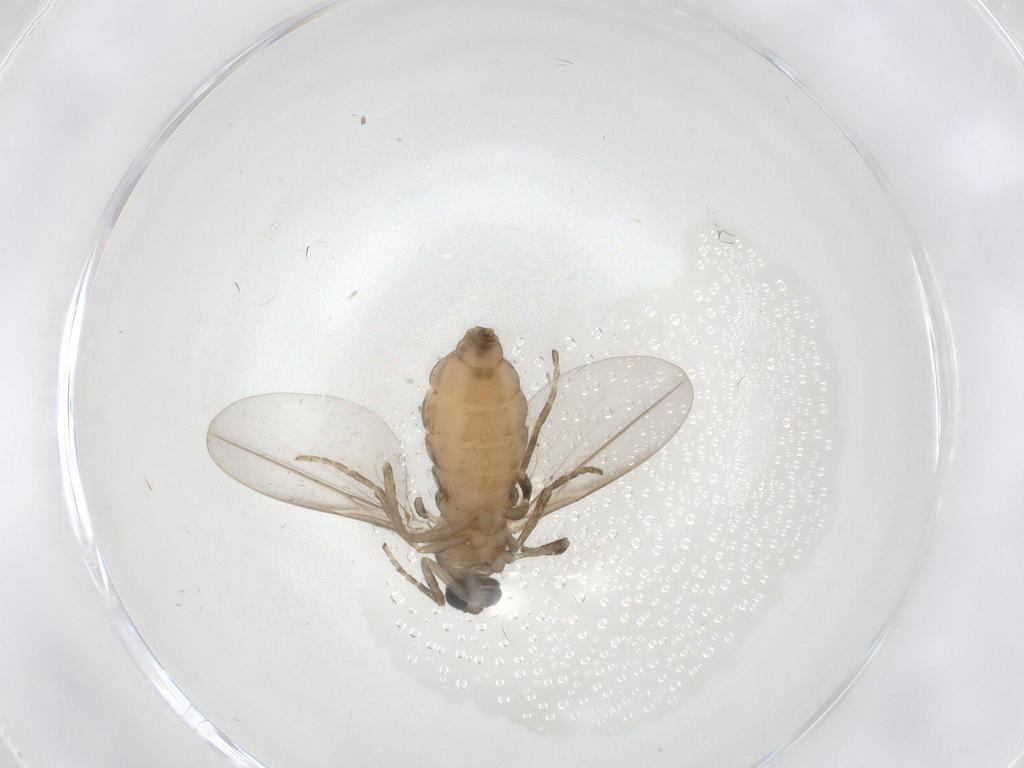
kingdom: Animalia
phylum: Arthropoda
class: Insecta
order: Diptera
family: Cecidomyiidae
